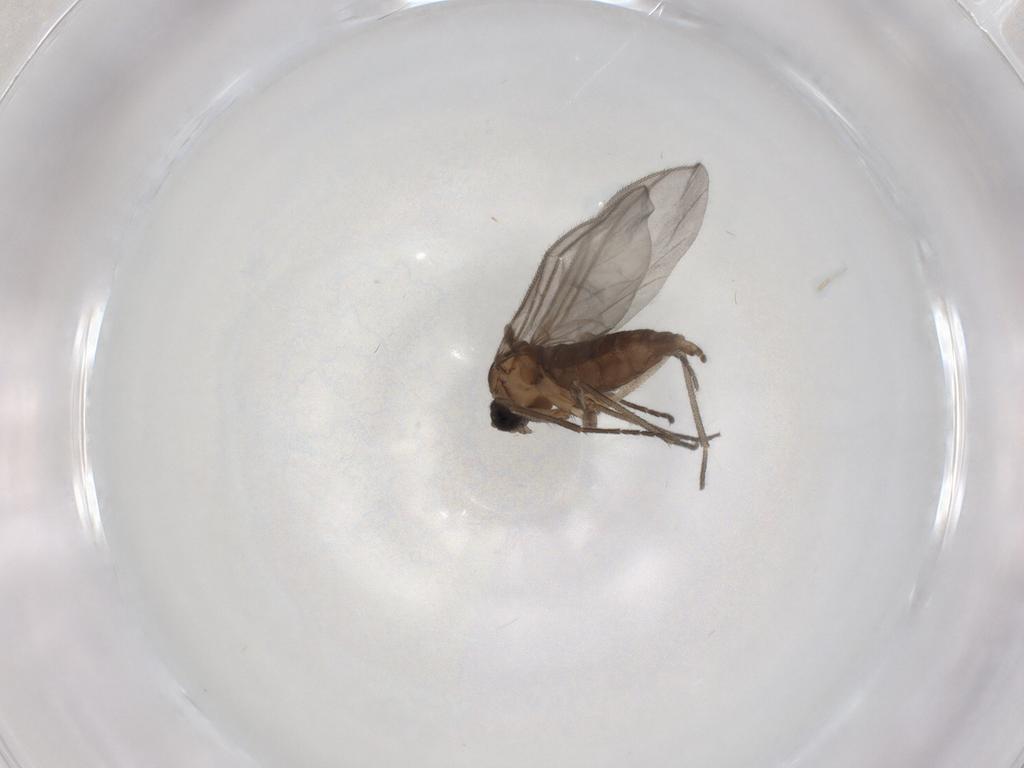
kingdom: Animalia
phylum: Arthropoda
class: Insecta
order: Diptera
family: Sciaridae
